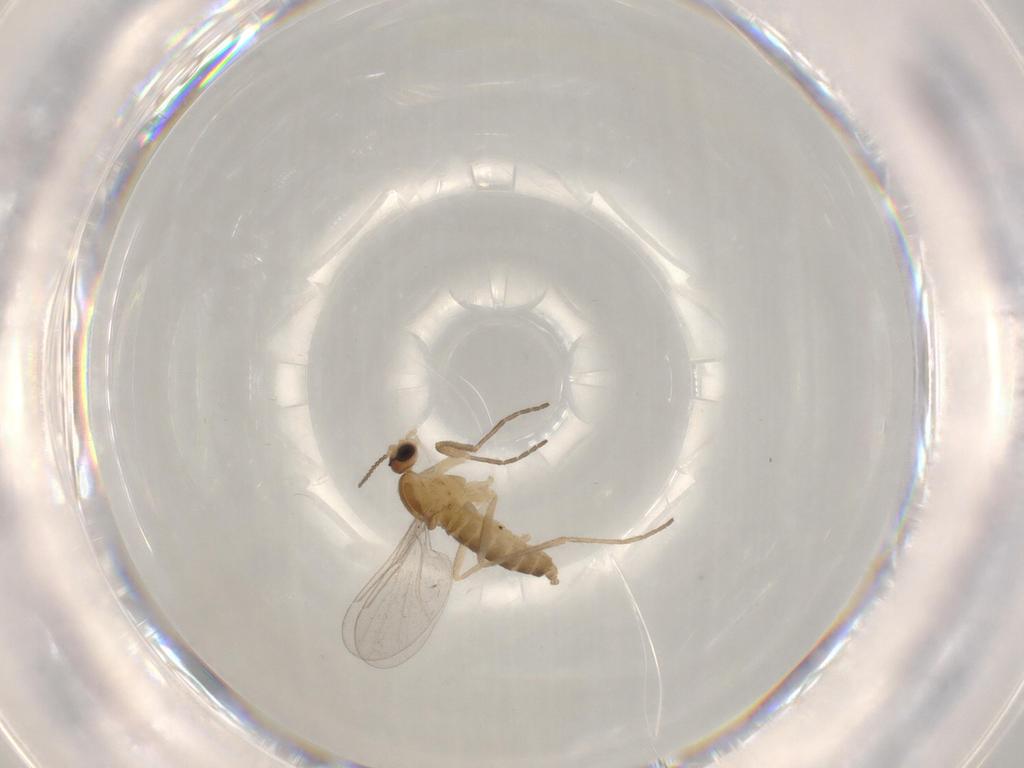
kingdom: Animalia
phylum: Arthropoda
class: Insecta
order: Diptera
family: Cecidomyiidae
